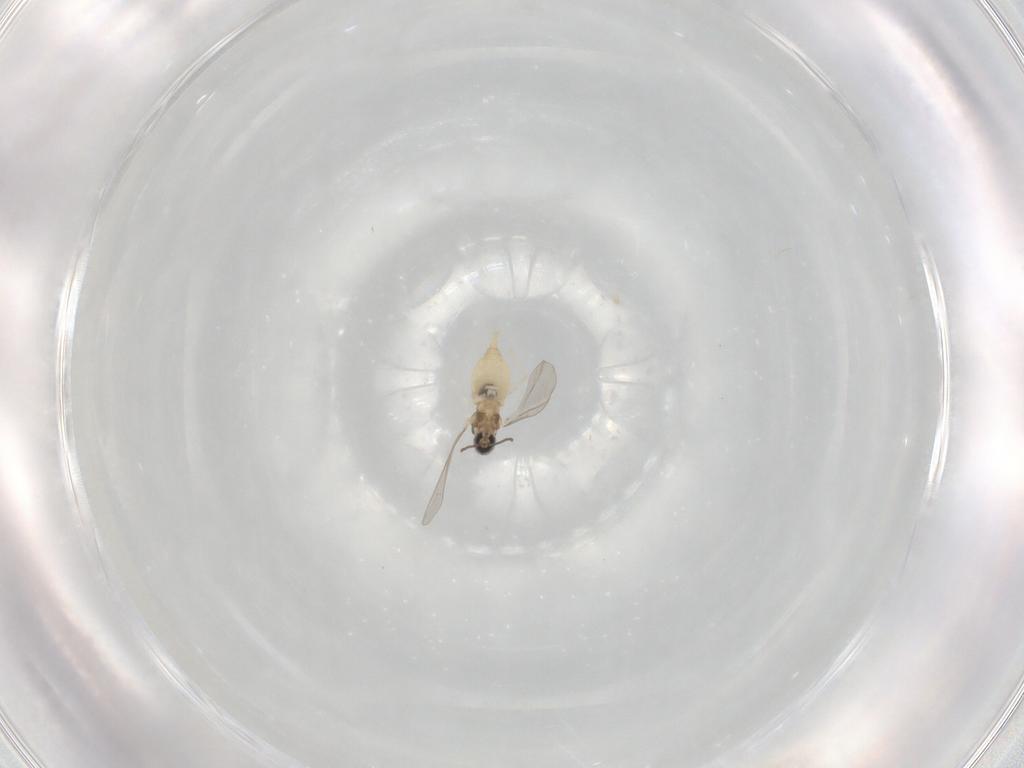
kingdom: Animalia
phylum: Arthropoda
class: Insecta
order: Diptera
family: Cecidomyiidae
